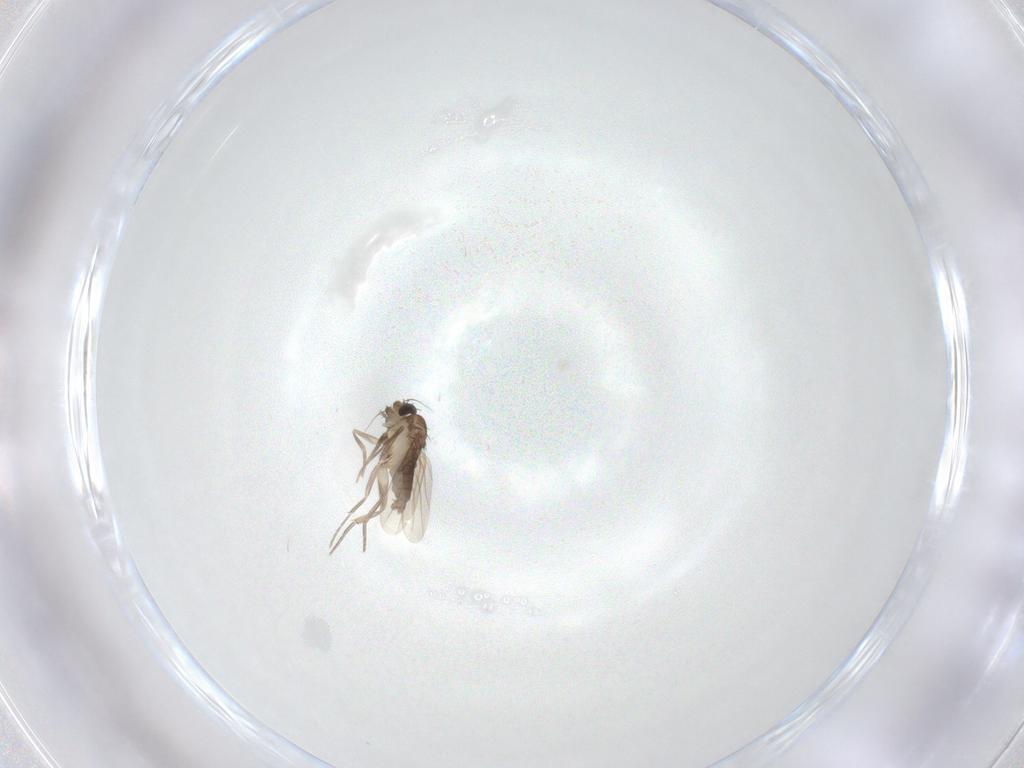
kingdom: Animalia
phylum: Arthropoda
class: Insecta
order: Diptera
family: Phoridae
